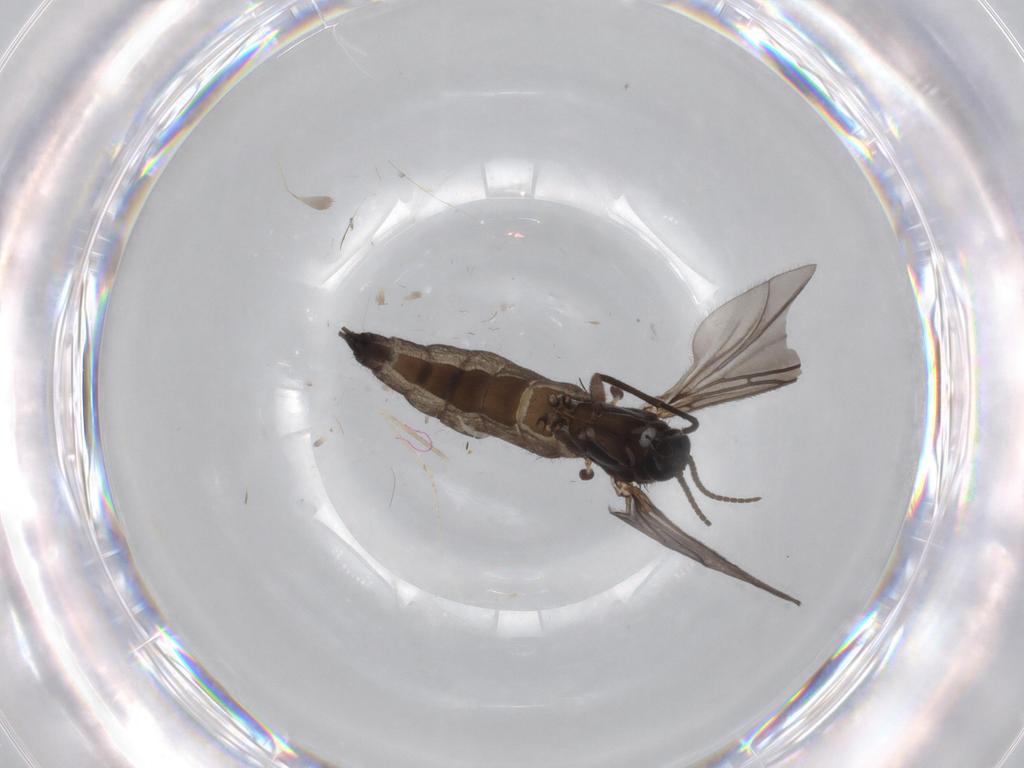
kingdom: Animalia
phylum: Arthropoda
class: Insecta
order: Diptera
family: Sciaridae
